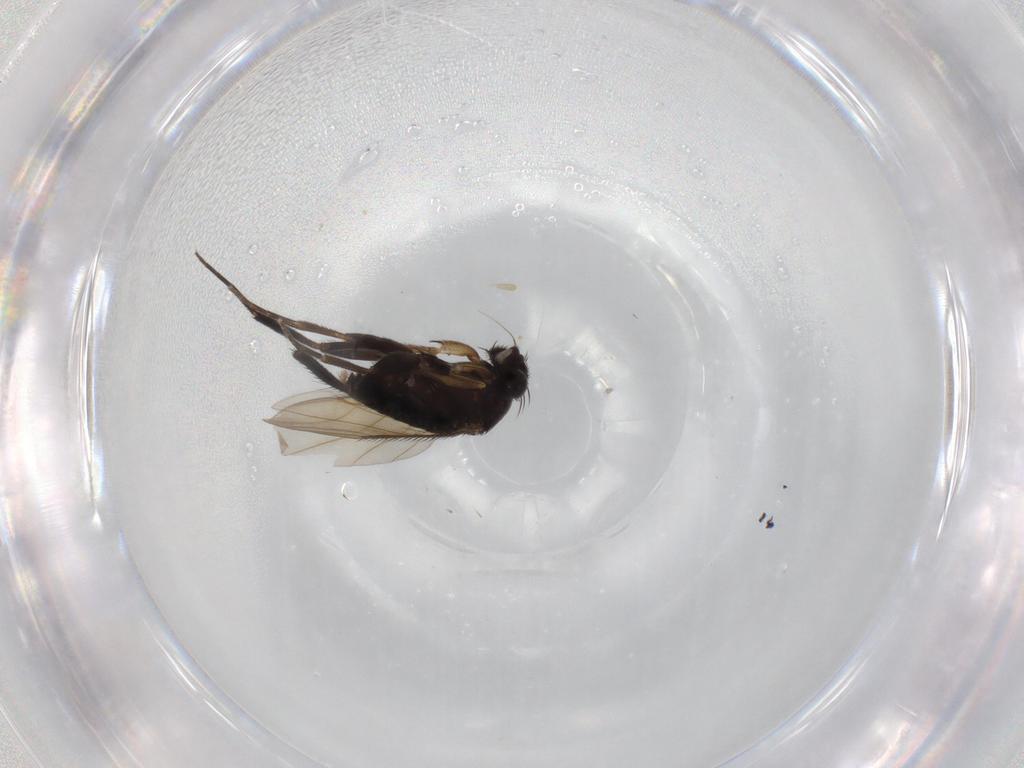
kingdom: Animalia
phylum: Arthropoda
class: Insecta
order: Diptera
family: Phoridae
